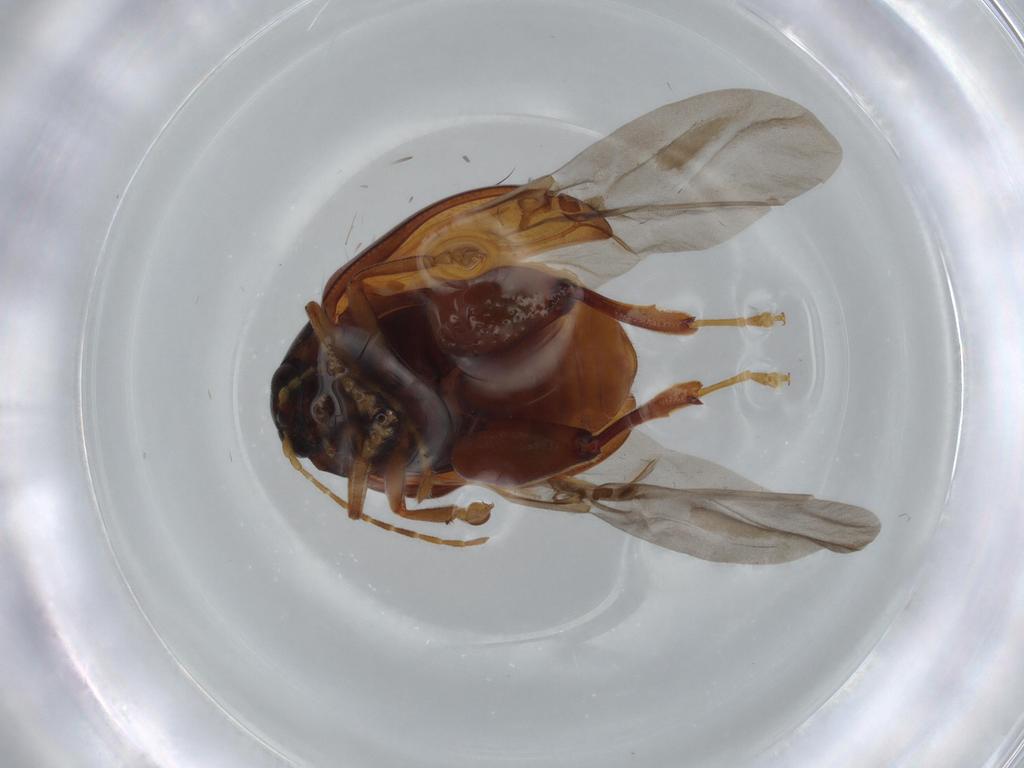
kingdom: Animalia
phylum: Arthropoda
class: Insecta
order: Coleoptera
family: Chrysomelidae
